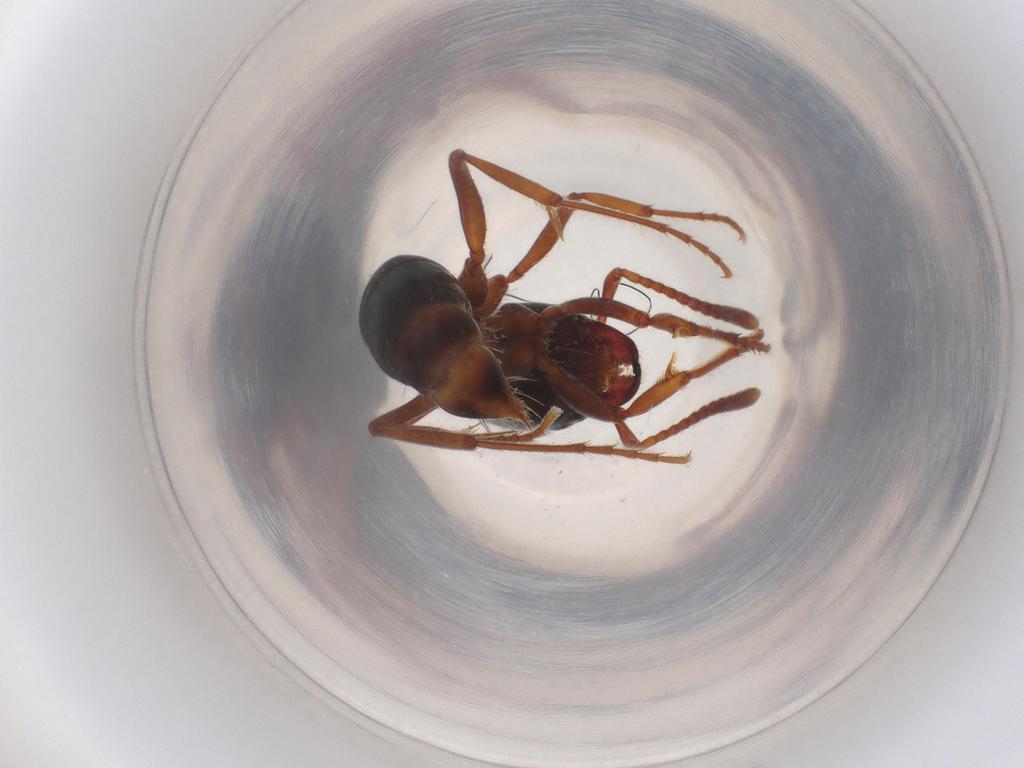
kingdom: Animalia
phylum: Arthropoda
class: Insecta
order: Hymenoptera
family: Formicidae
